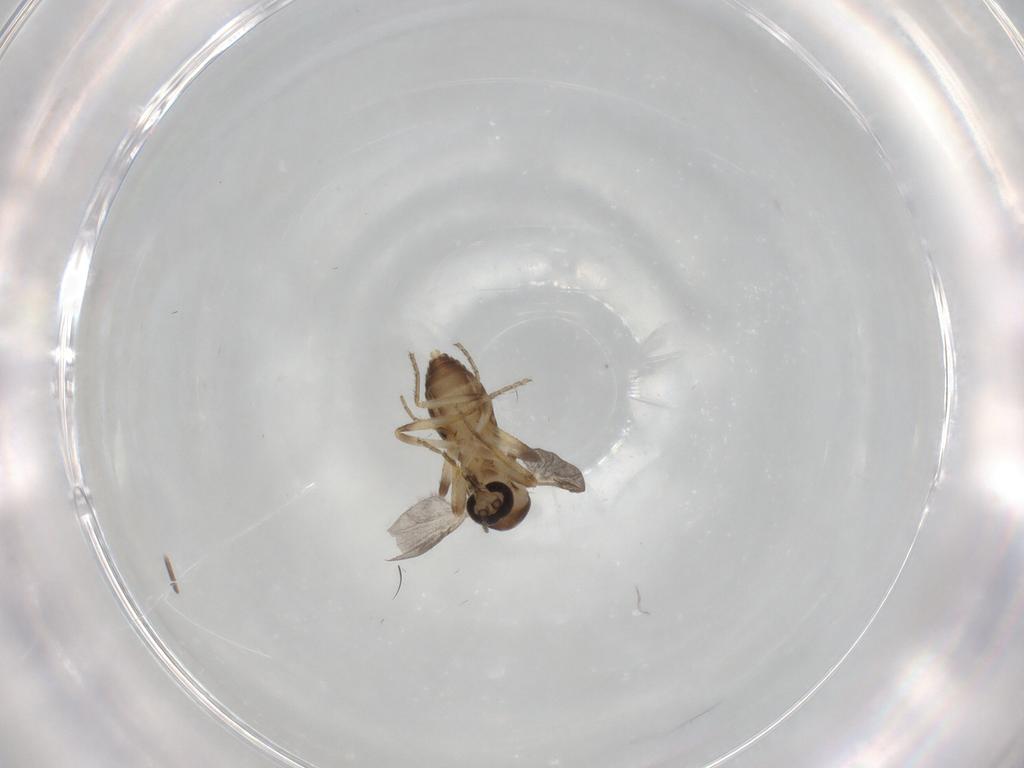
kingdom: Animalia
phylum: Arthropoda
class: Insecta
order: Diptera
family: Ceratopogonidae
